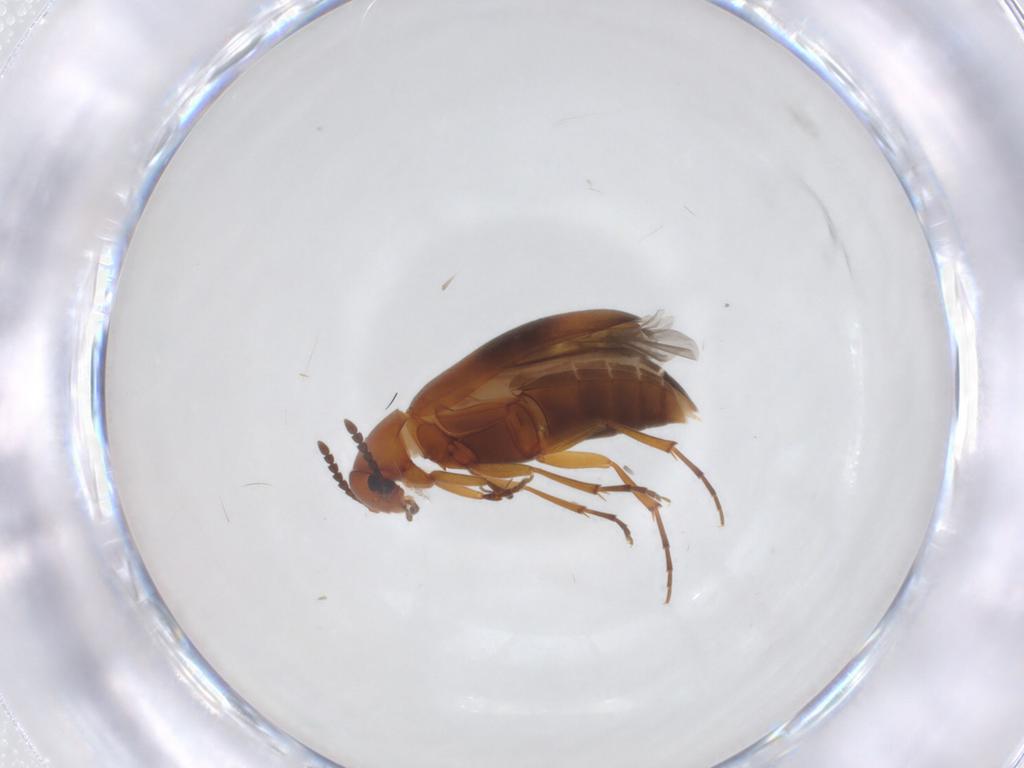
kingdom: Animalia
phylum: Arthropoda
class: Insecta
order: Coleoptera
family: Scraptiidae
